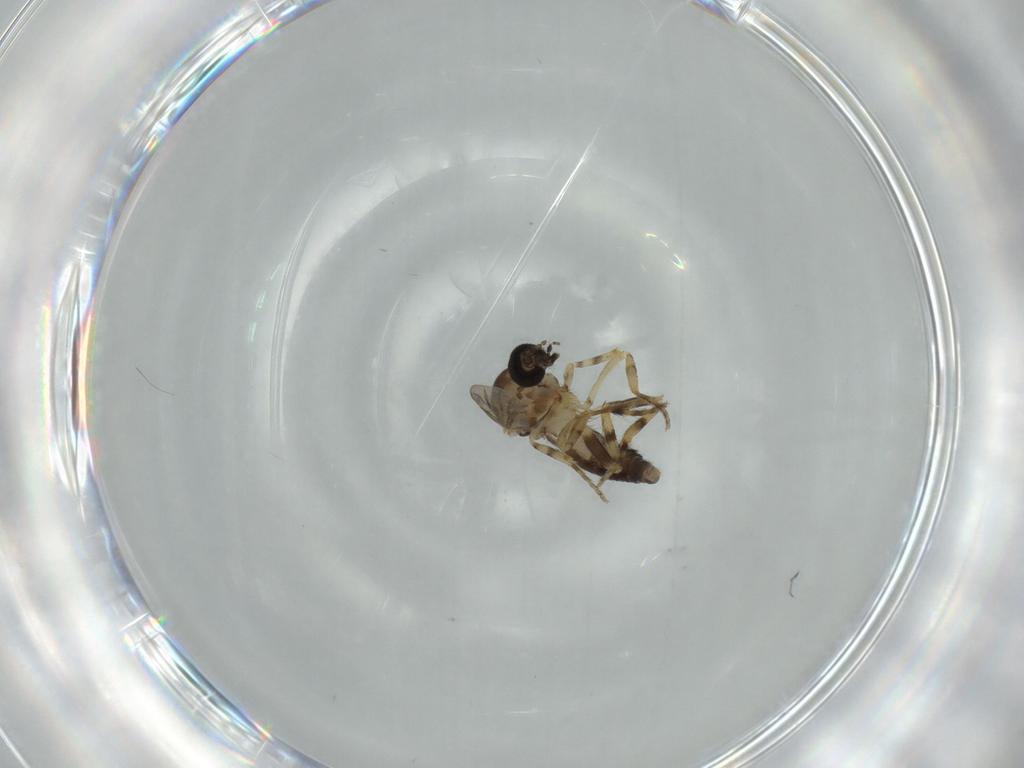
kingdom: Animalia
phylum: Arthropoda
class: Insecta
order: Diptera
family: Ceratopogonidae
